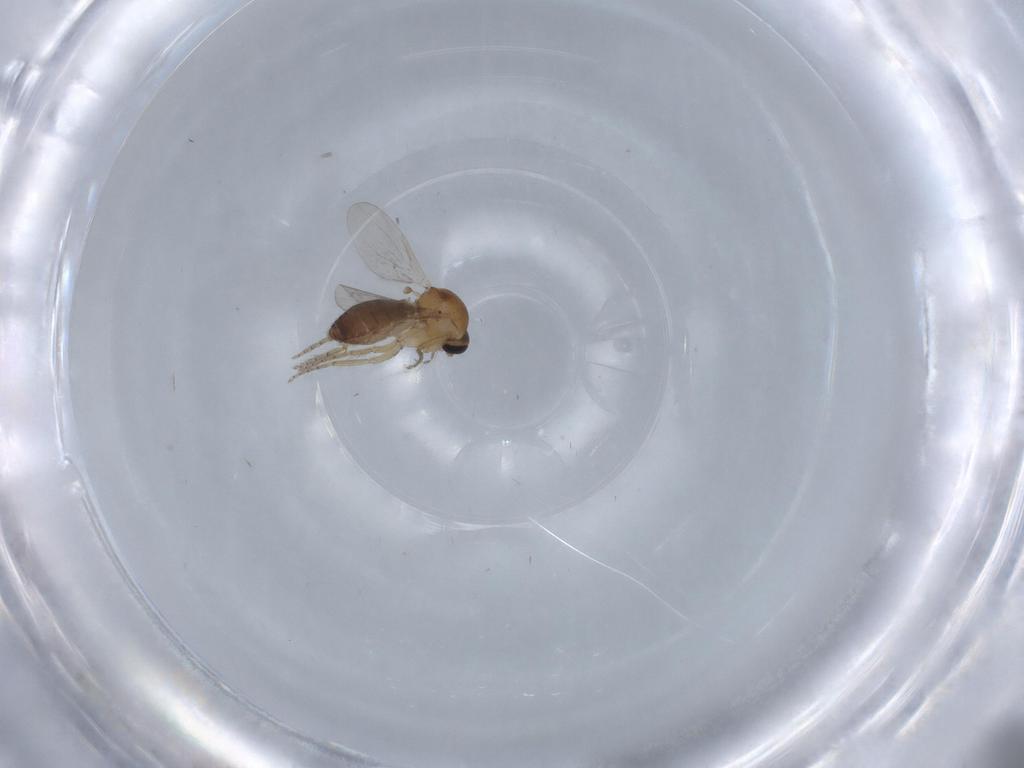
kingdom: Animalia
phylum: Arthropoda
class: Insecta
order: Diptera
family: Ceratopogonidae
